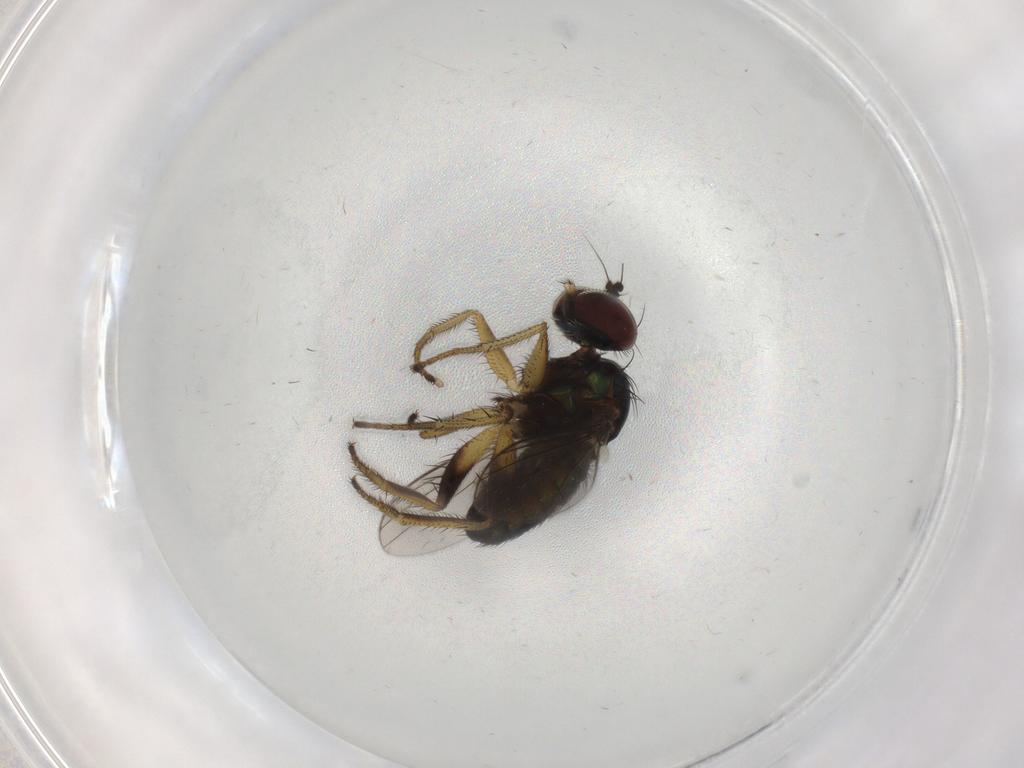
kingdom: Animalia
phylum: Arthropoda
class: Insecta
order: Diptera
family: Dolichopodidae
